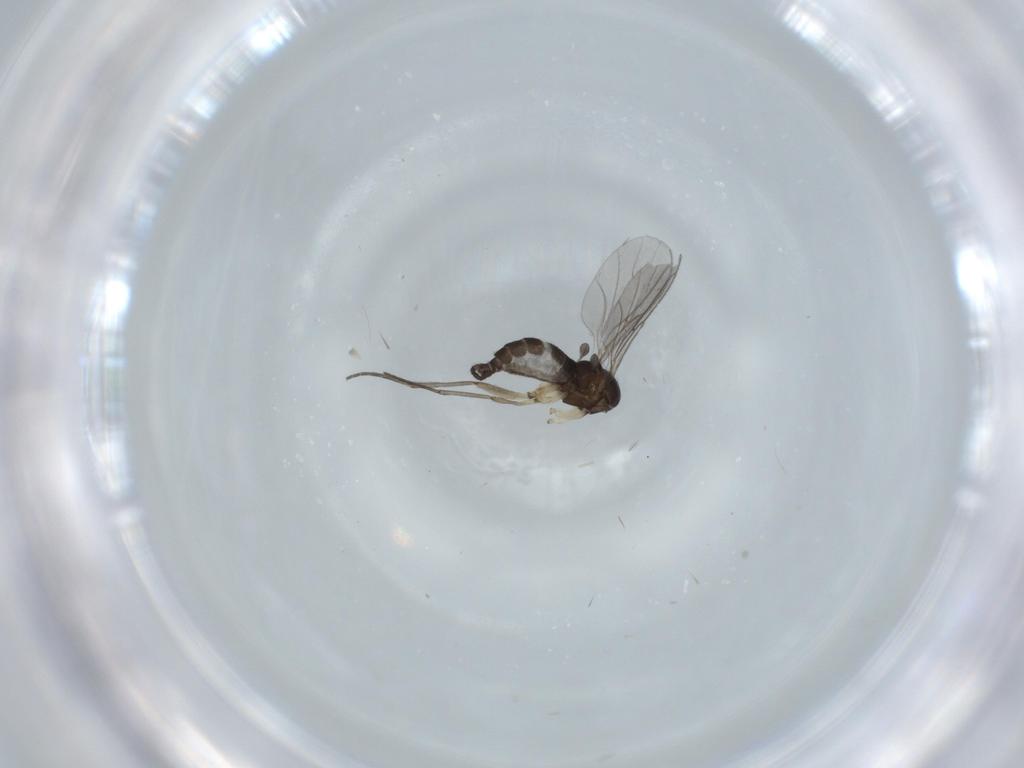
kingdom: Animalia
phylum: Arthropoda
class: Insecta
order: Diptera
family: Sciaridae
